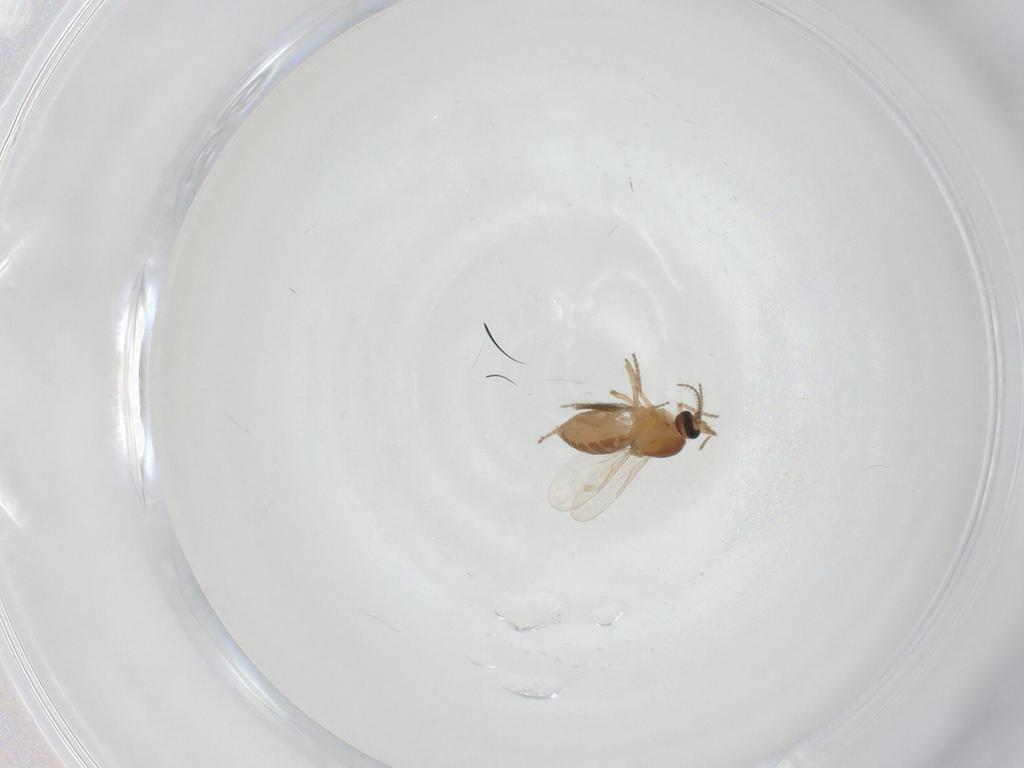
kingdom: Animalia
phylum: Arthropoda
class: Insecta
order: Diptera
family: Ceratopogonidae
